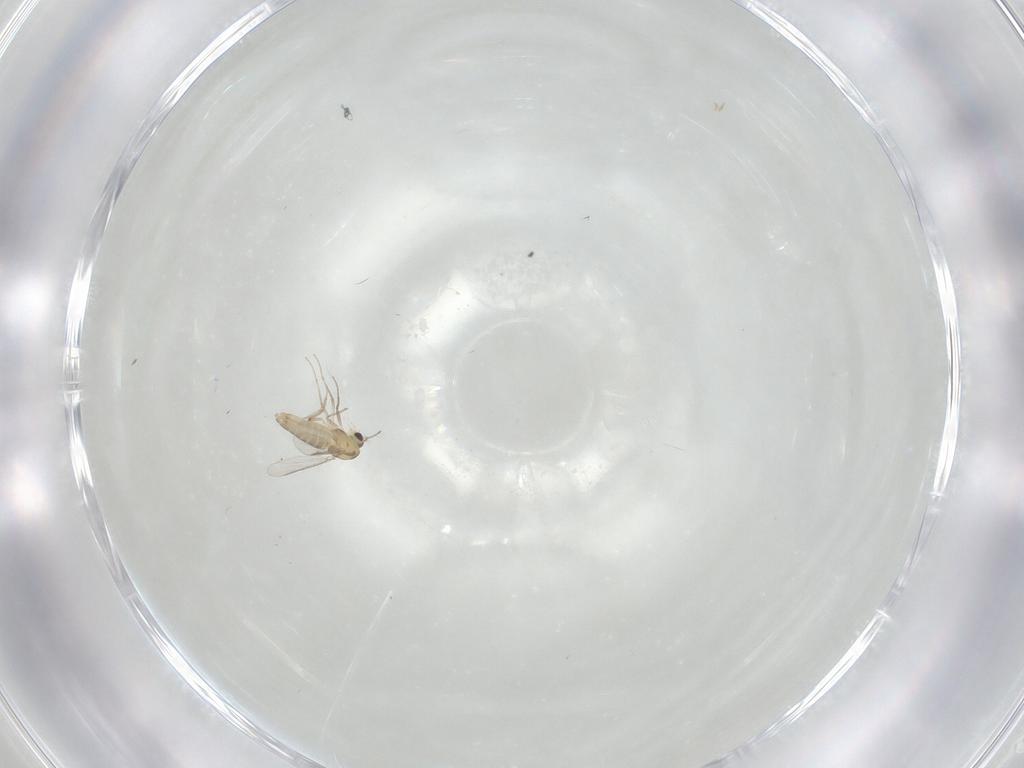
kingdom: Animalia
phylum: Arthropoda
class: Insecta
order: Diptera
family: Chironomidae
